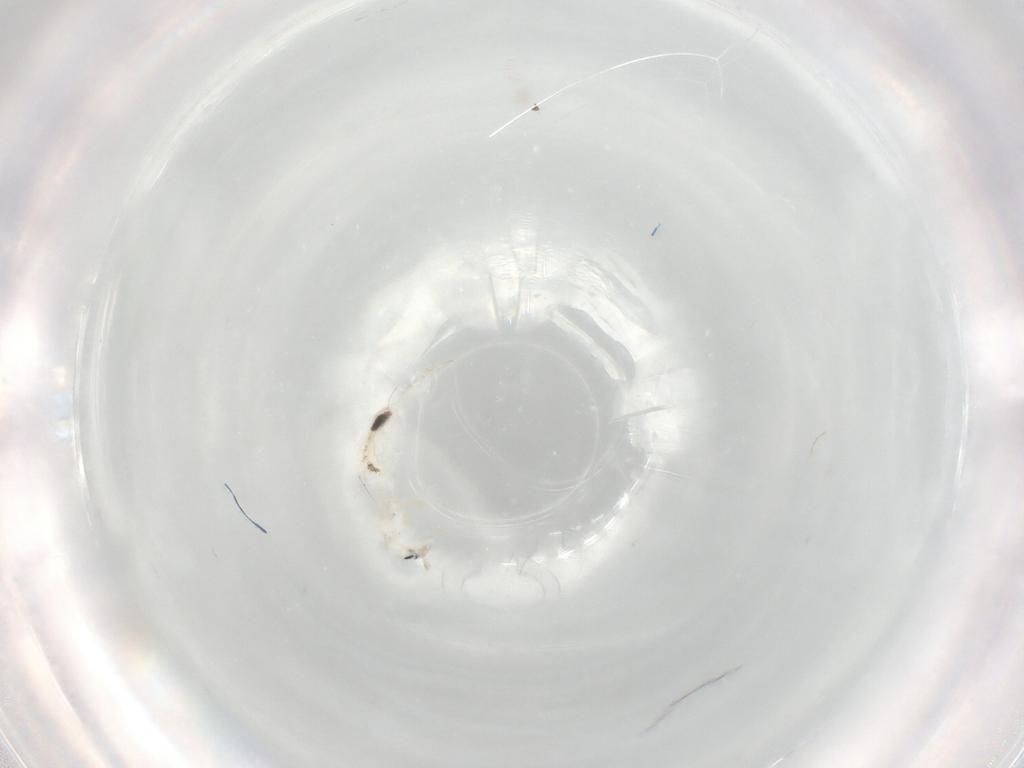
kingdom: Animalia
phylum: Arthropoda
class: Collembola
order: Entomobryomorpha
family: Entomobryidae
